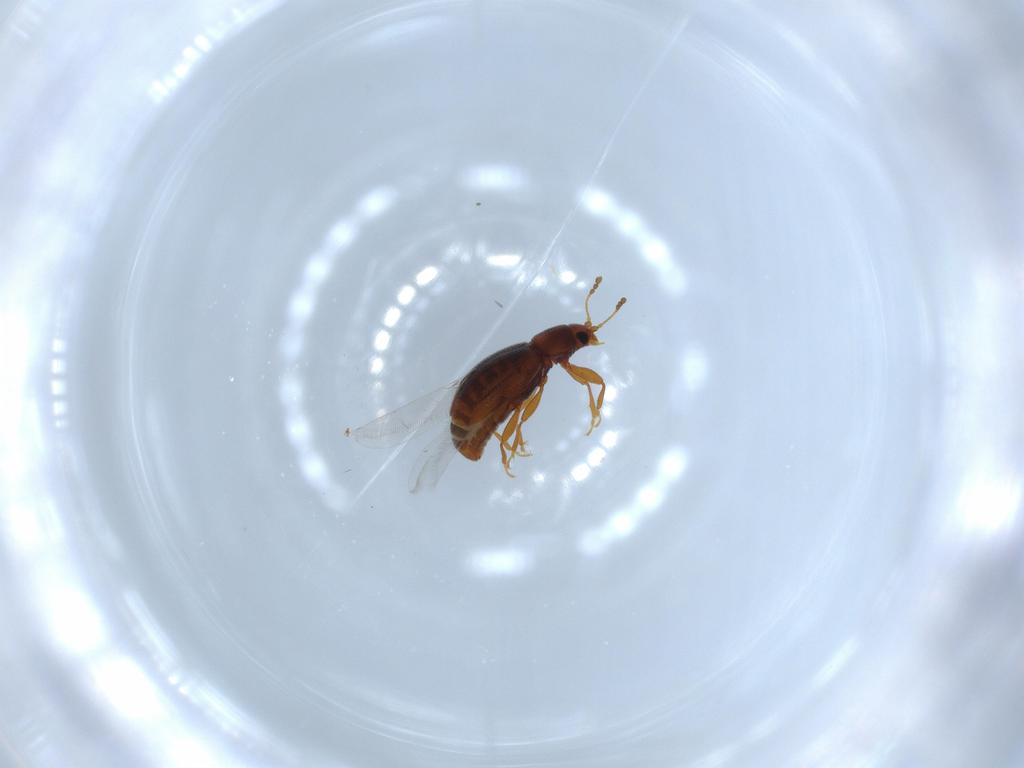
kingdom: Animalia
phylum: Arthropoda
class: Insecta
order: Coleoptera
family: Latridiidae
